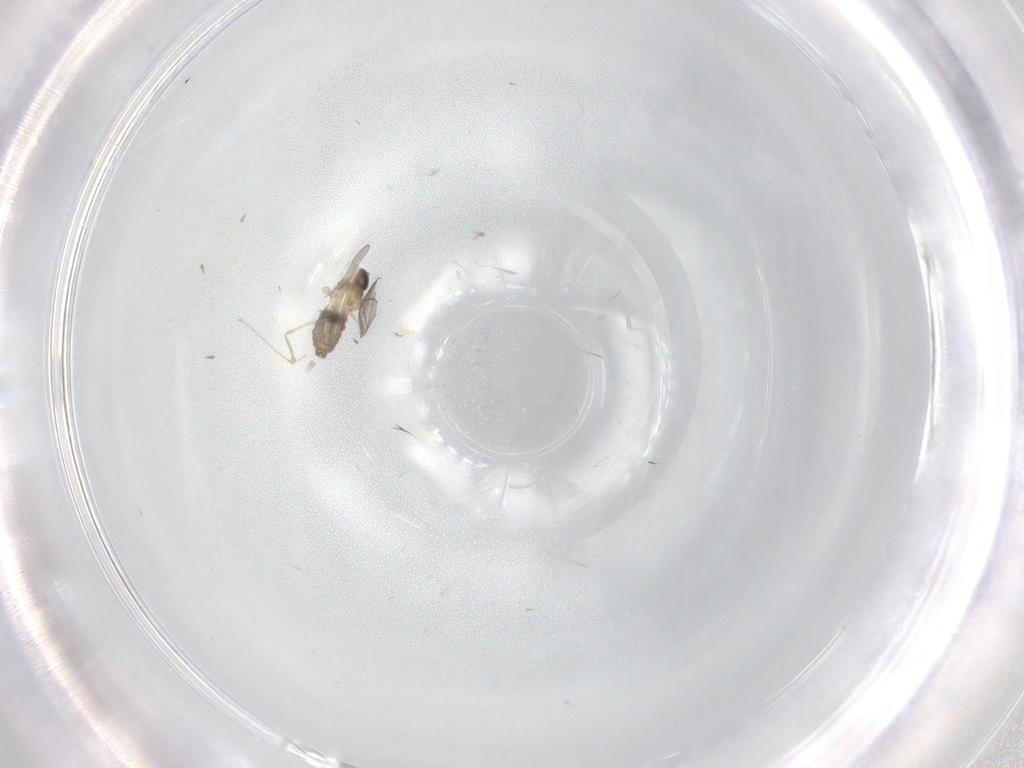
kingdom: Animalia
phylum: Arthropoda
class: Insecta
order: Diptera
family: Cecidomyiidae
